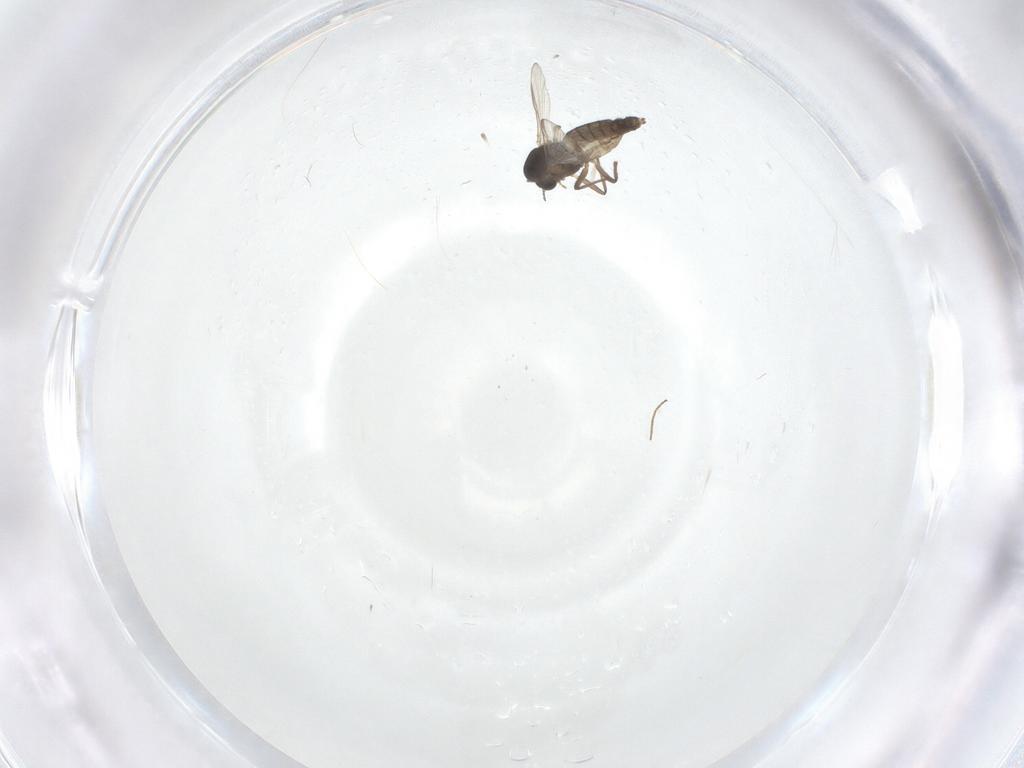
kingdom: Animalia
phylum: Arthropoda
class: Insecta
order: Diptera
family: Chironomidae
